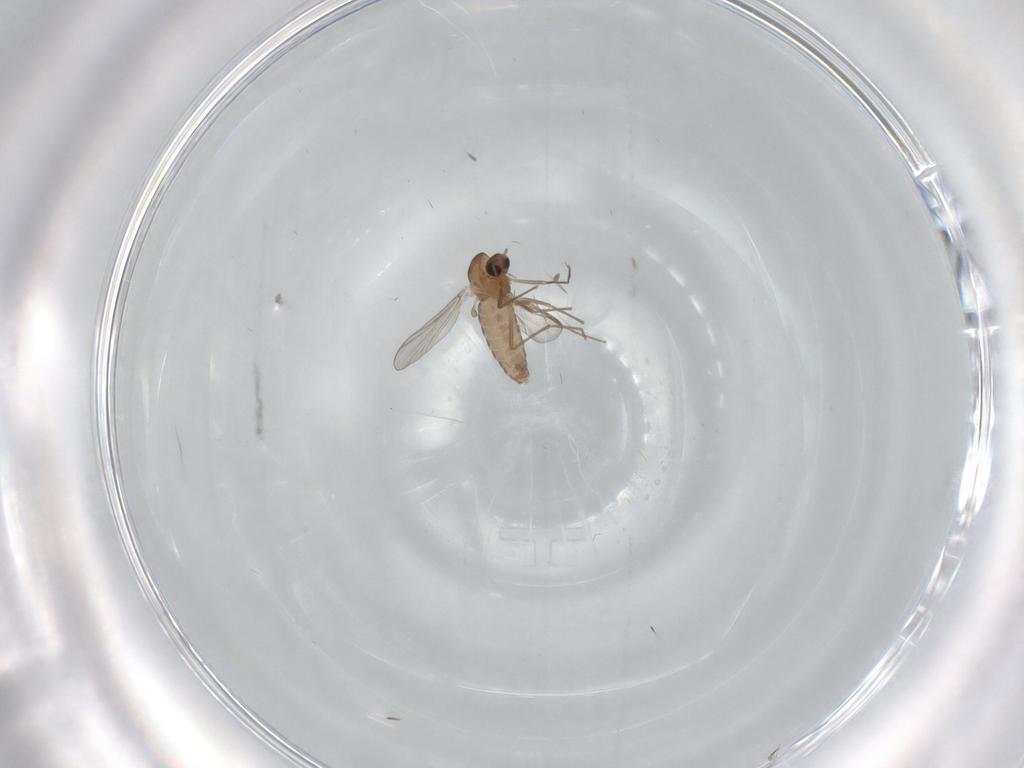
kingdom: Animalia
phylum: Arthropoda
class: Insecta
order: Diptera
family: Chironomidae
